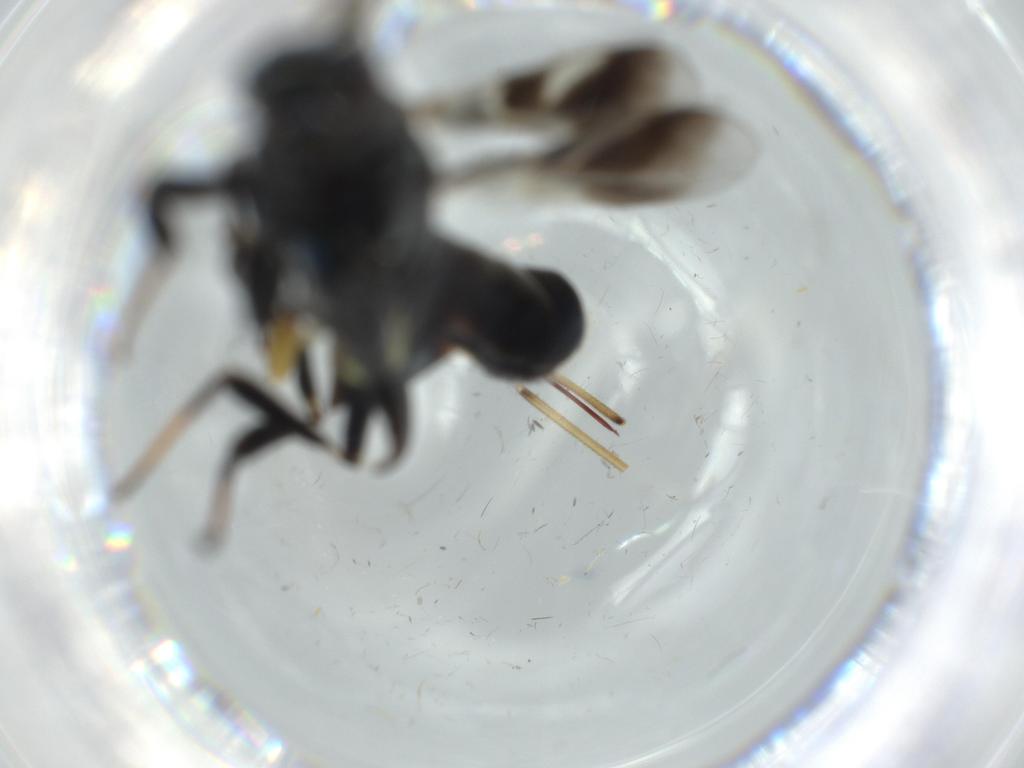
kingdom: Animalia
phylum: Arthropoda
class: Insecta
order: Hymenoptera
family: Eupelmidae
